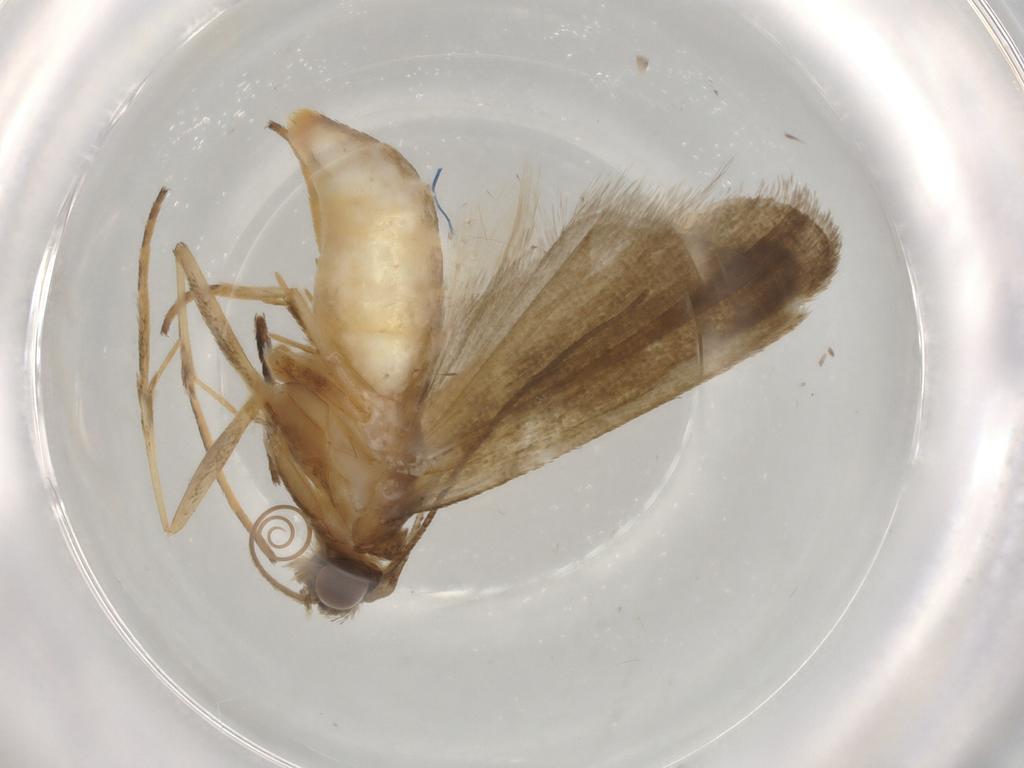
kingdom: Animalia
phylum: Arthropoda
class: Insecta
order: Lepidoptera
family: Noctuidae
